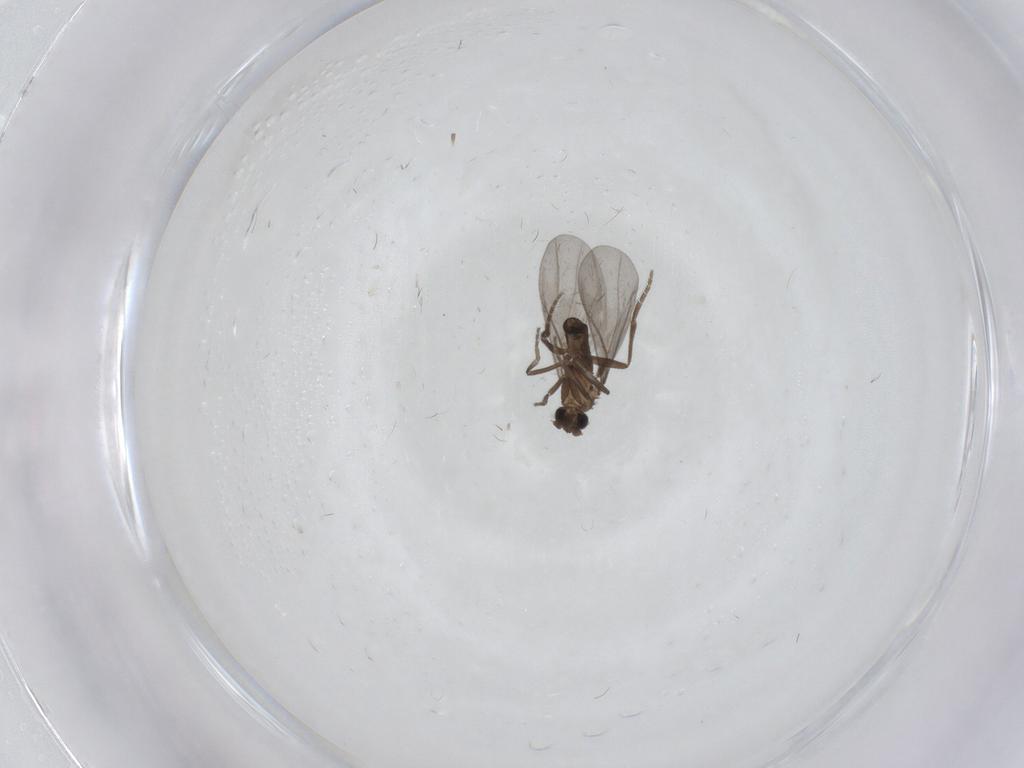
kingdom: Animalia
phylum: Arthropoda
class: Insecta
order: Diptera
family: Phoridae
